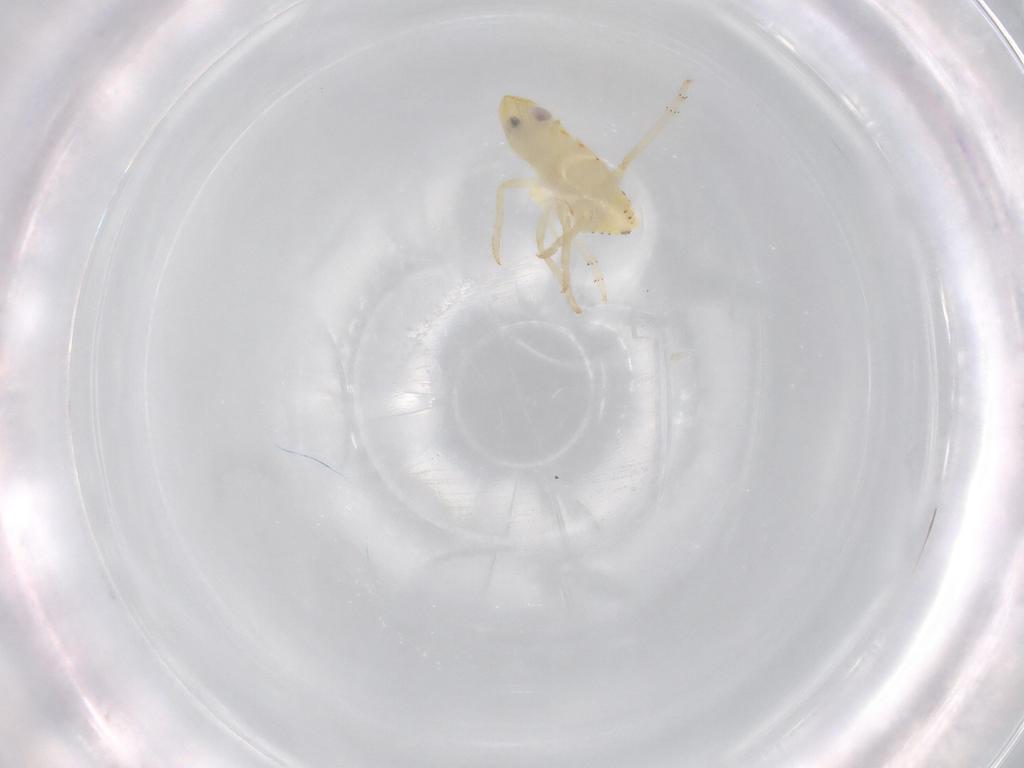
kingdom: Animalia
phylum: Arthropoda
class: Insecta
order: Hemiptera
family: Tropiduchidae
